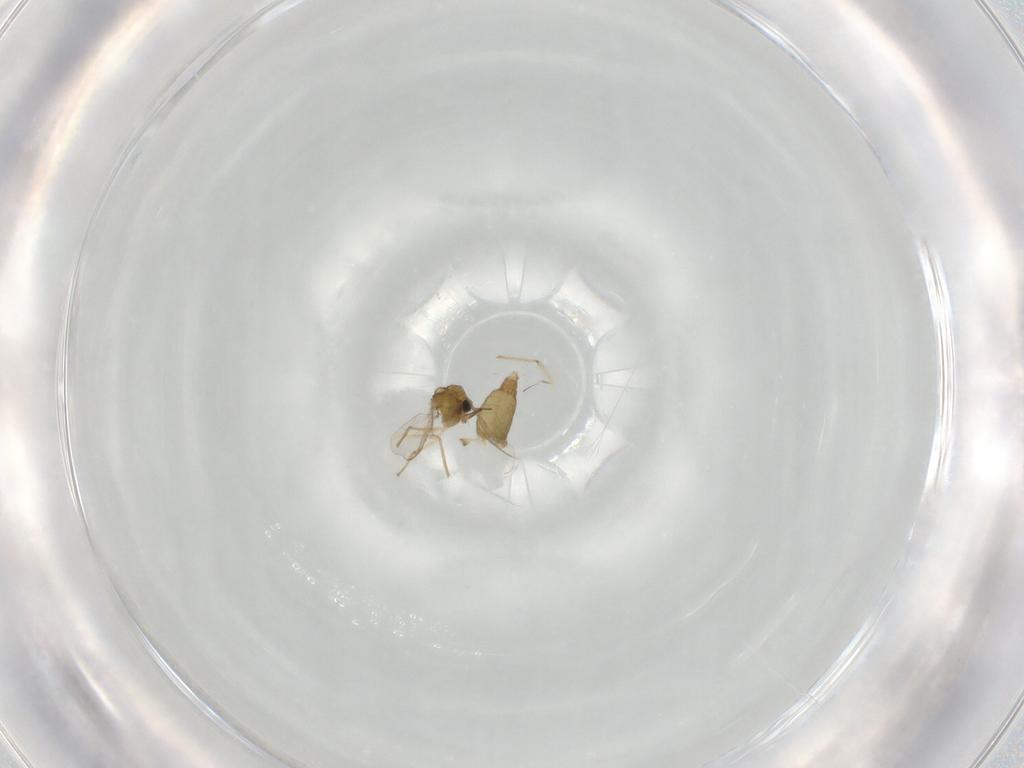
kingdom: Animalia
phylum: Arthropoda
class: Insecta
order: Diptera
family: Chironomidae
